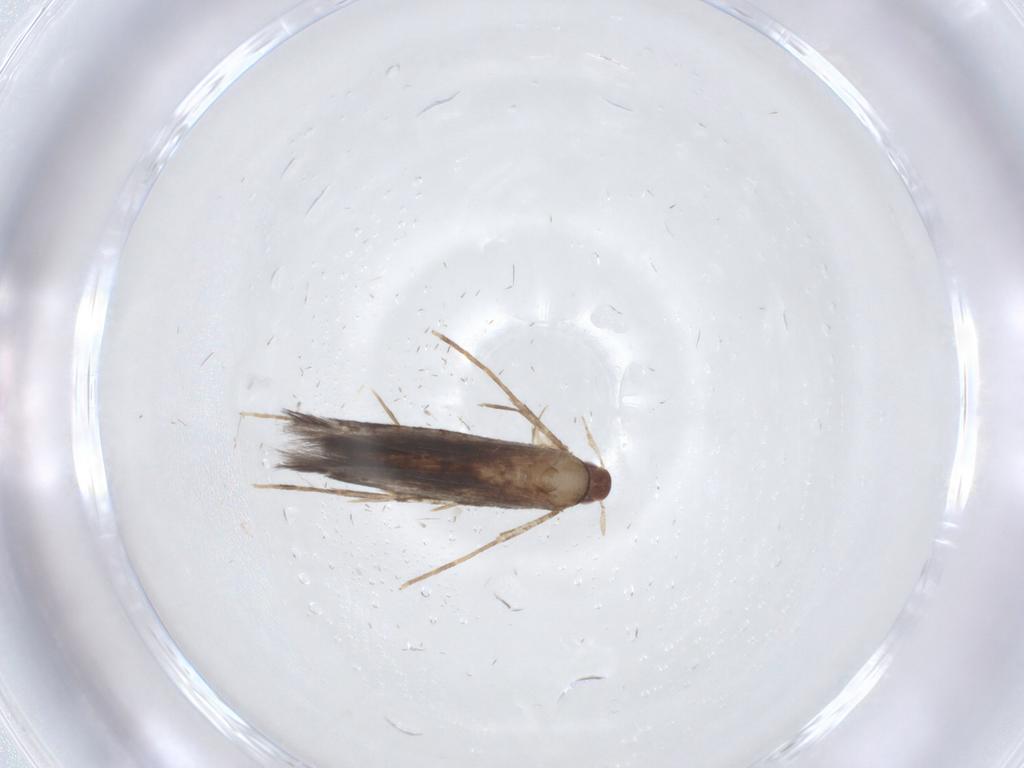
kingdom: Animalia
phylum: Arthropoda
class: Insecta
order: Lepidoptera
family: Cosmopterigidae
